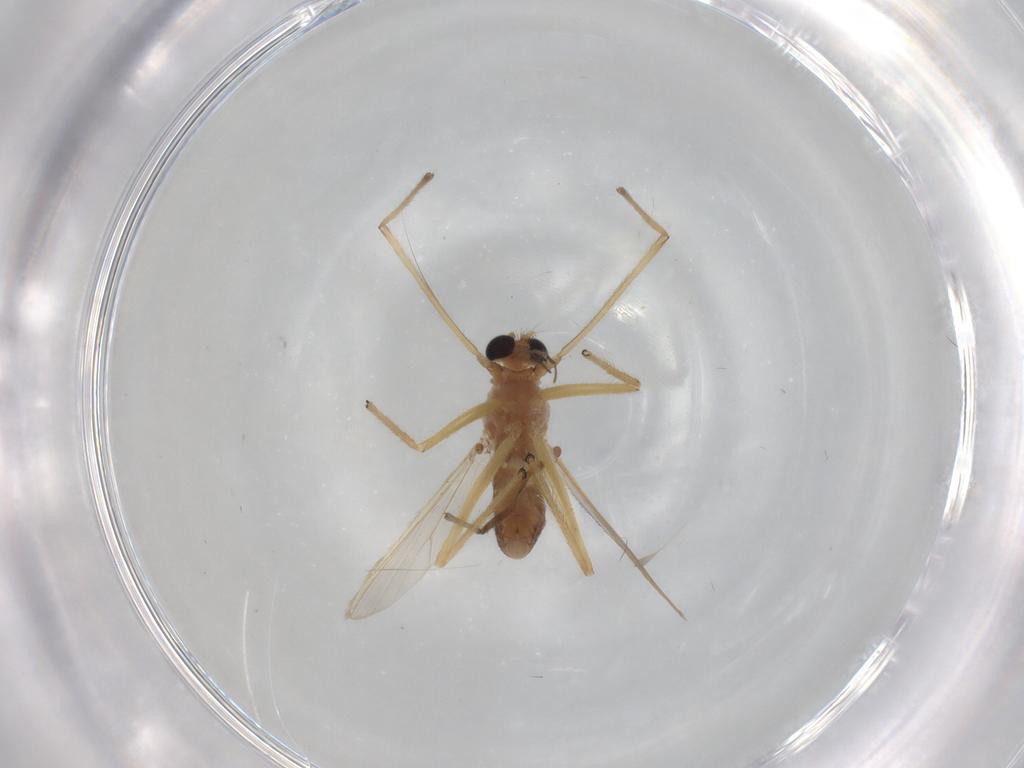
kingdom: Animalia
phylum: Arthropoda
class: Insecta
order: Diptera
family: Chironomidae
